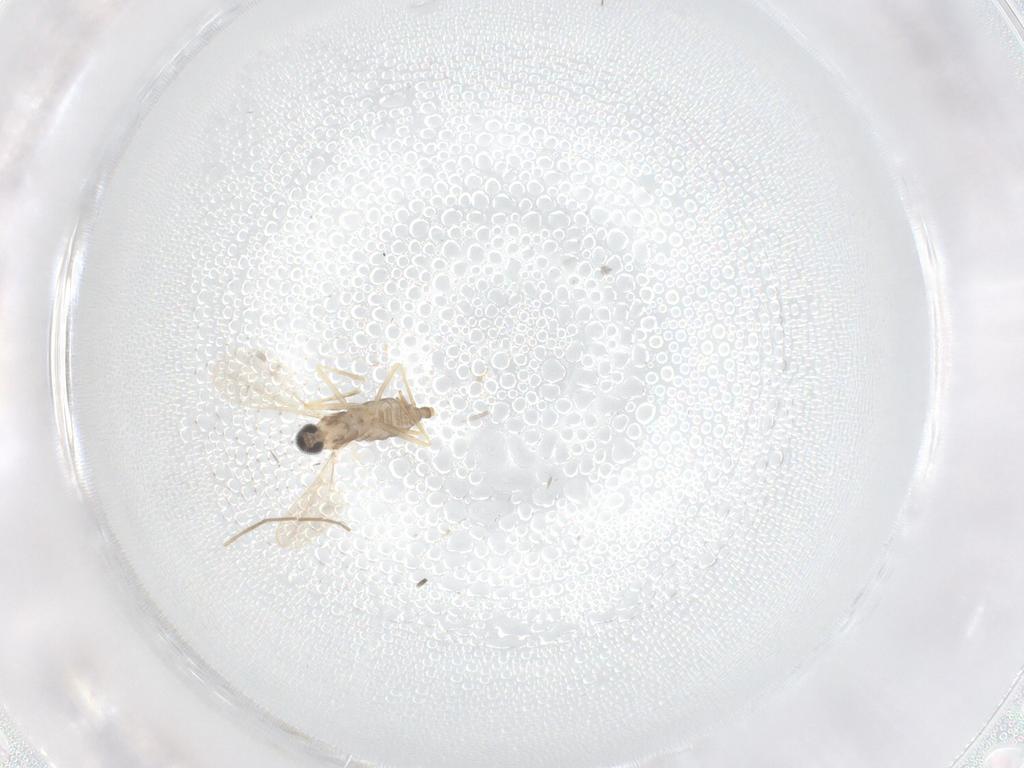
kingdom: Animalia
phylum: Arthropoda
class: Insecta
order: Diptera
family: Cecidomyiidae
